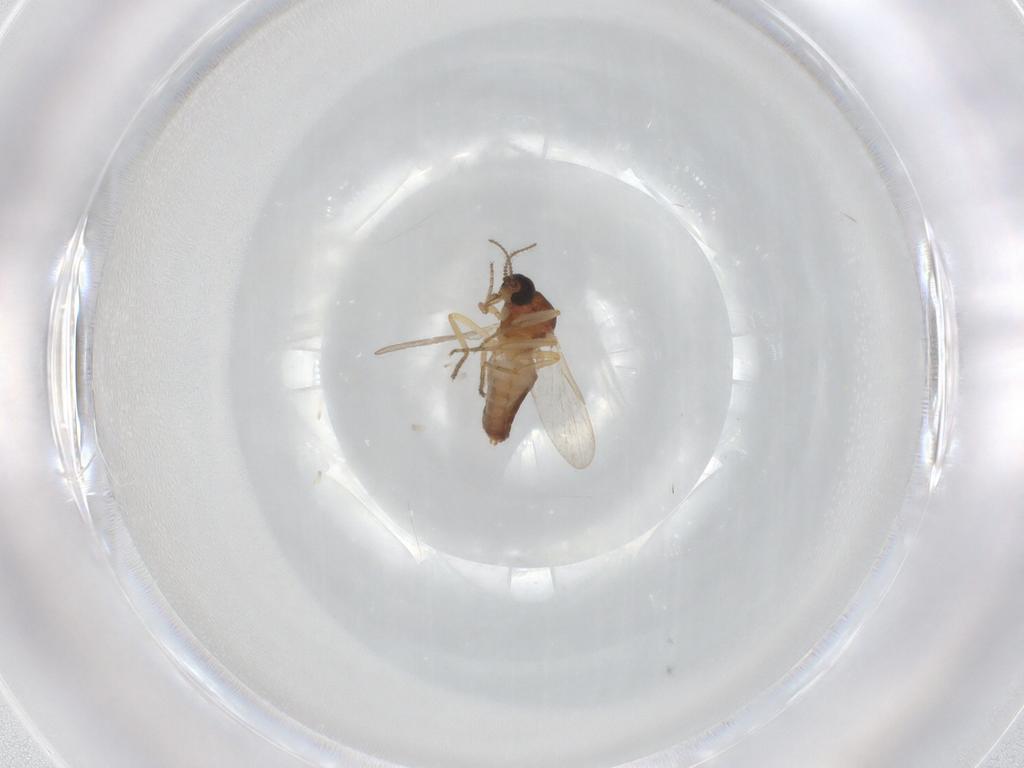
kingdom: Animalia
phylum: Arthropoda
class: Insecta
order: Diptera
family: Ceratopogonidae
